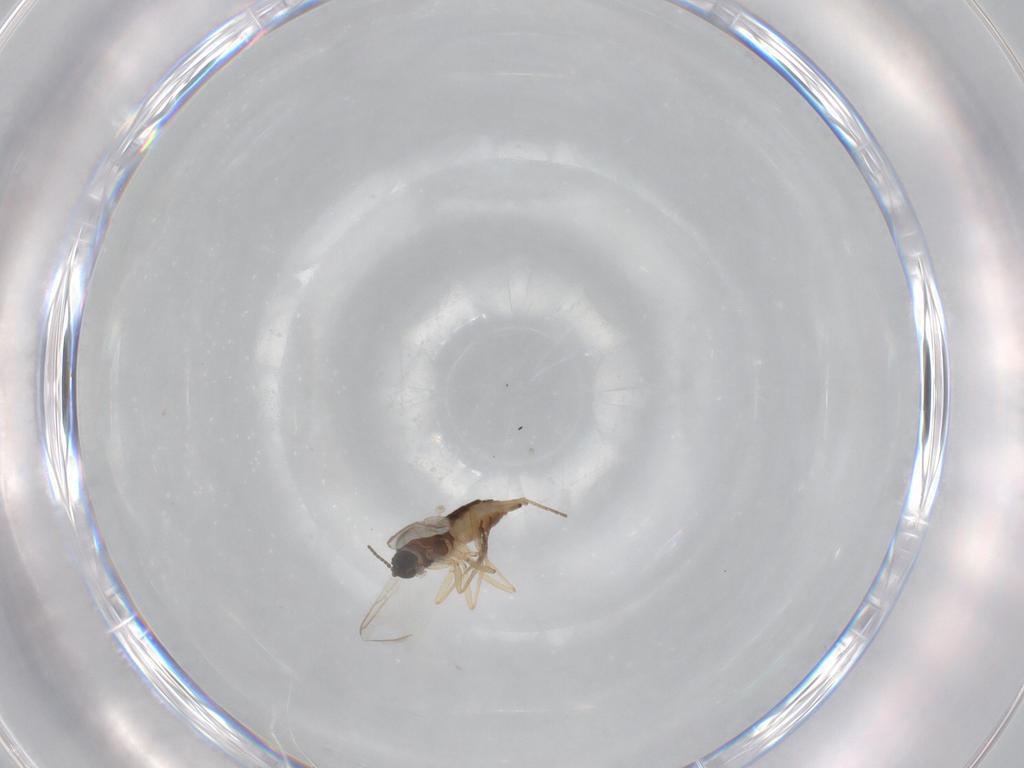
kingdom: Animalia
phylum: Arthropoda
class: Insecta
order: Diptera
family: Sciaridae
